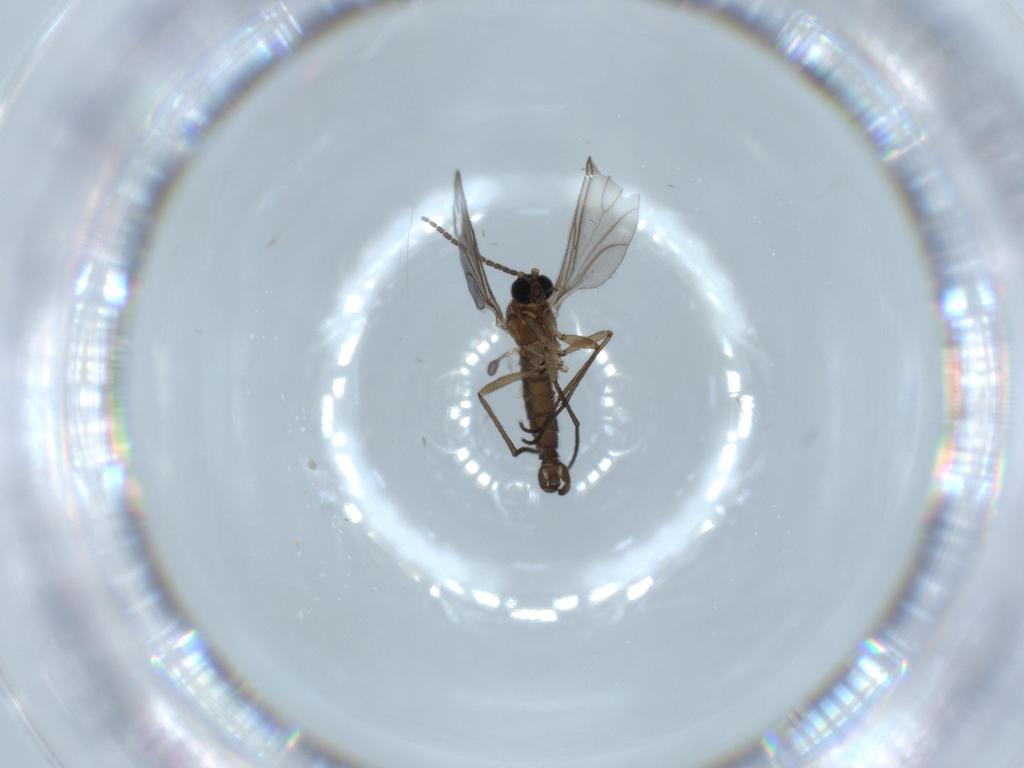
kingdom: Animalia
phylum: Arthropoda
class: Insecta
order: Diptera
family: Sciaridae
